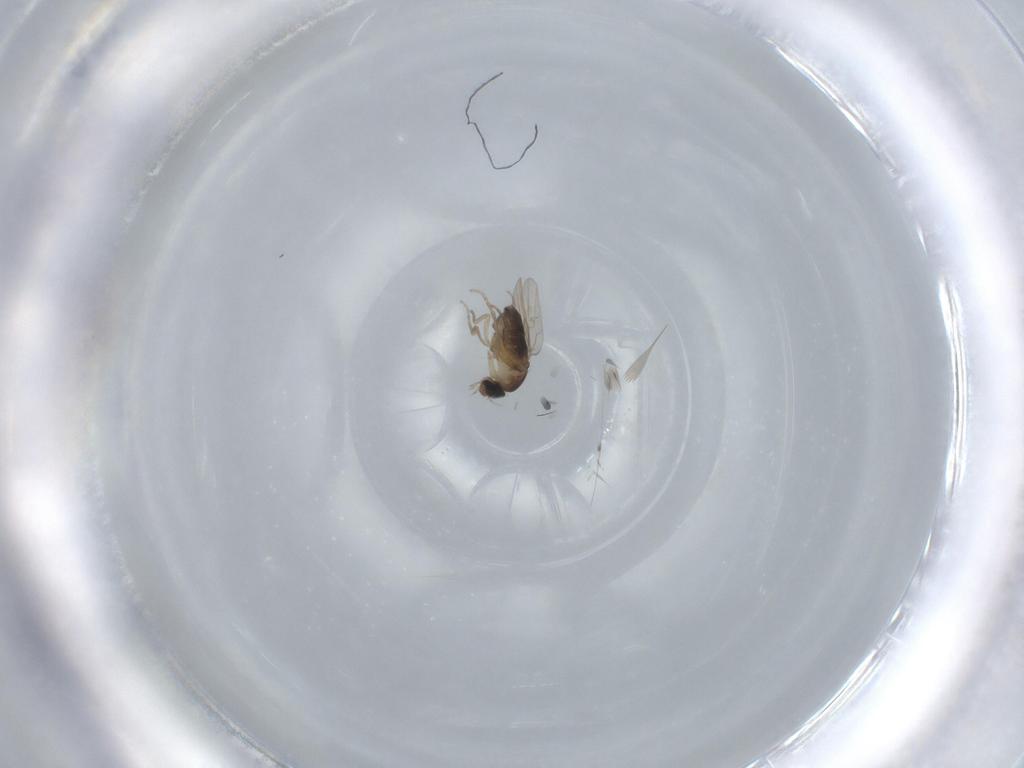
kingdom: Animalia
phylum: Arthropoda
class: Insecta
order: Diptera
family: Phoridae
